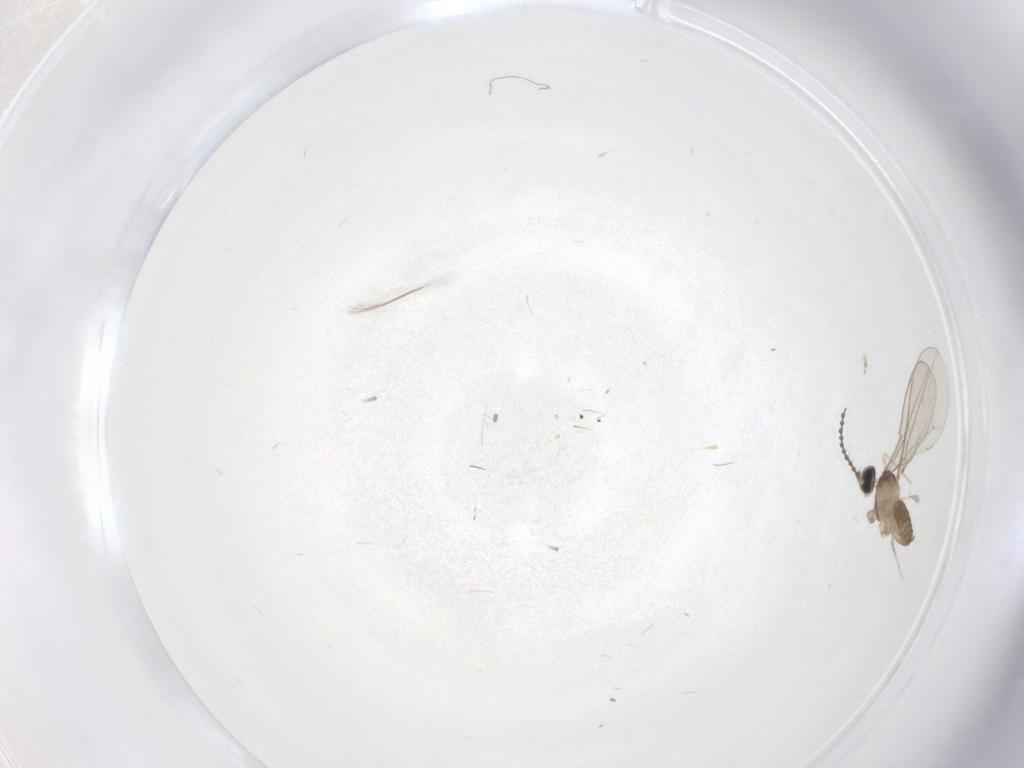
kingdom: Animalia
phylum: Arthropoda
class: Insecta
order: Diptera
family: Cecidomyiidae
